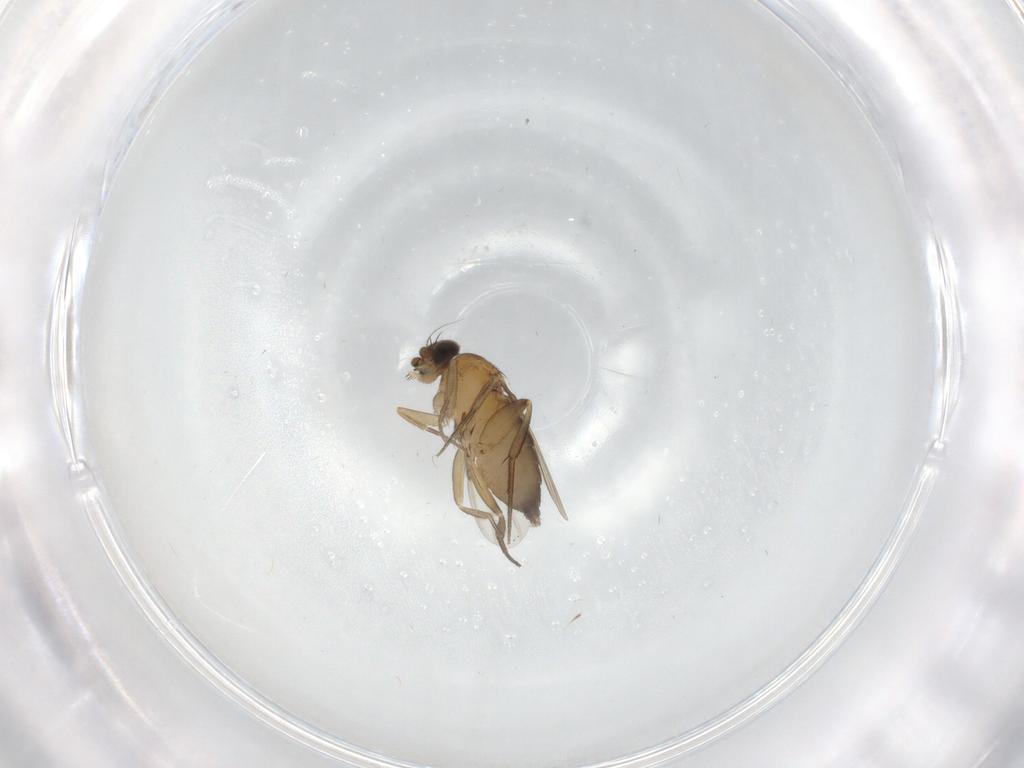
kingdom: Animalia
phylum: Arthropoda
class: Insecta
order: Diptera
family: Phoridae
